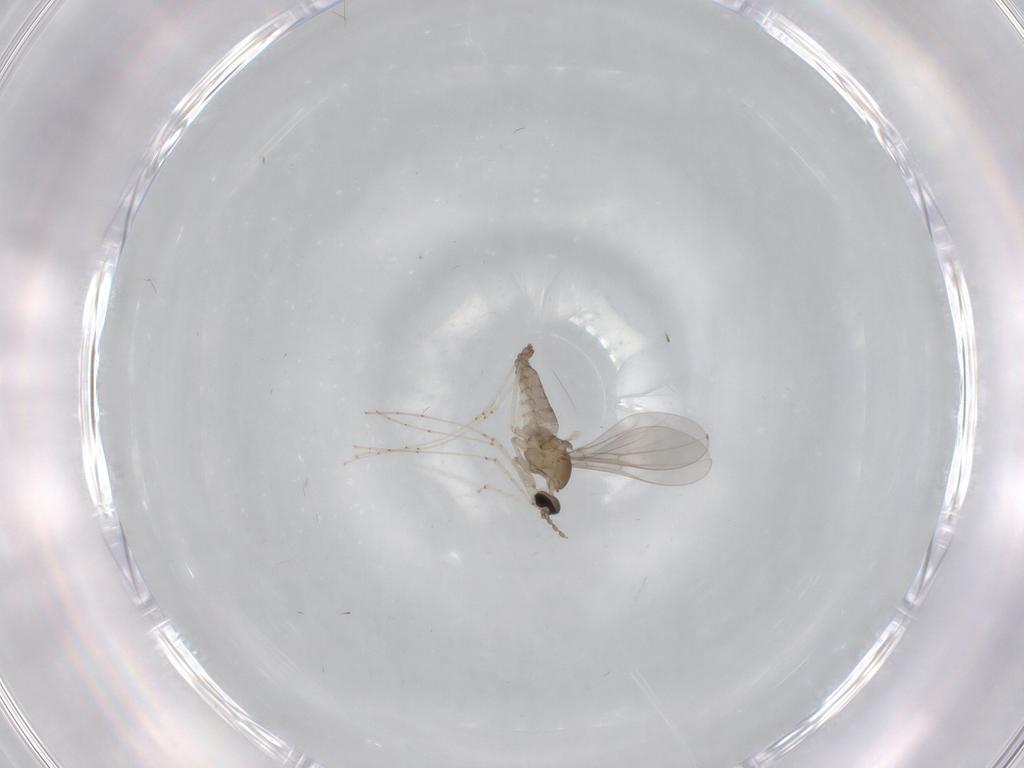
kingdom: Animalia
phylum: Arthropoda
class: Insecta
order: Diptera
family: Cecidomyiidae
